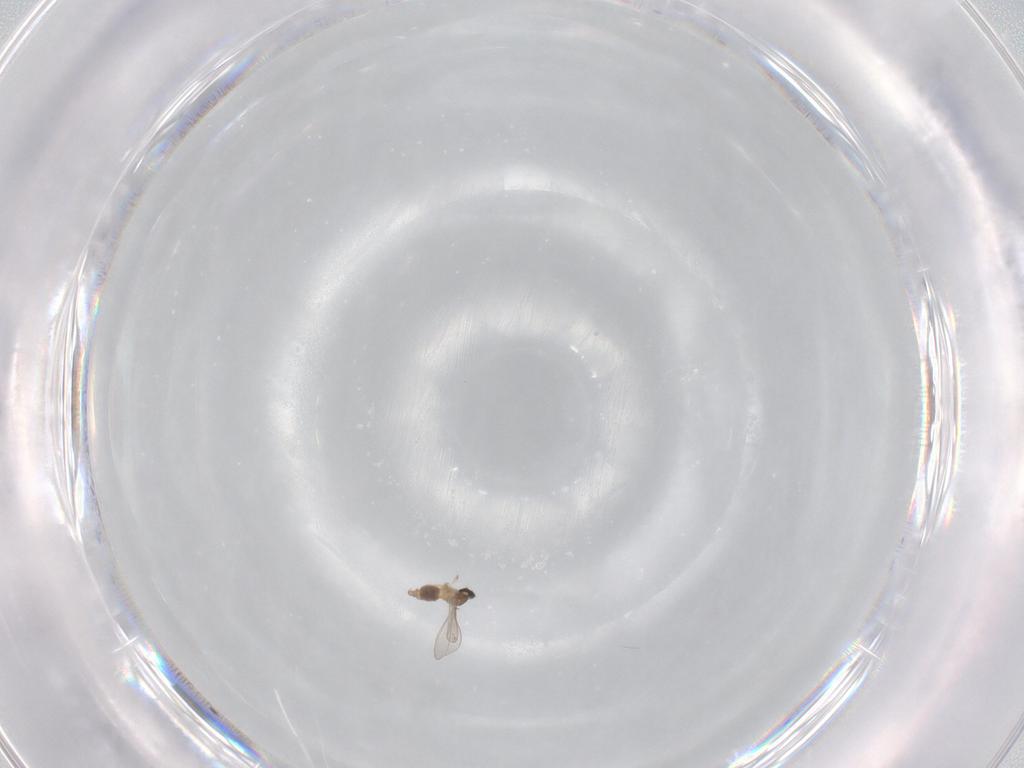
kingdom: Animalia
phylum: Arthropoda
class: Insecta
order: Diptera
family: Cecidomyiidae
